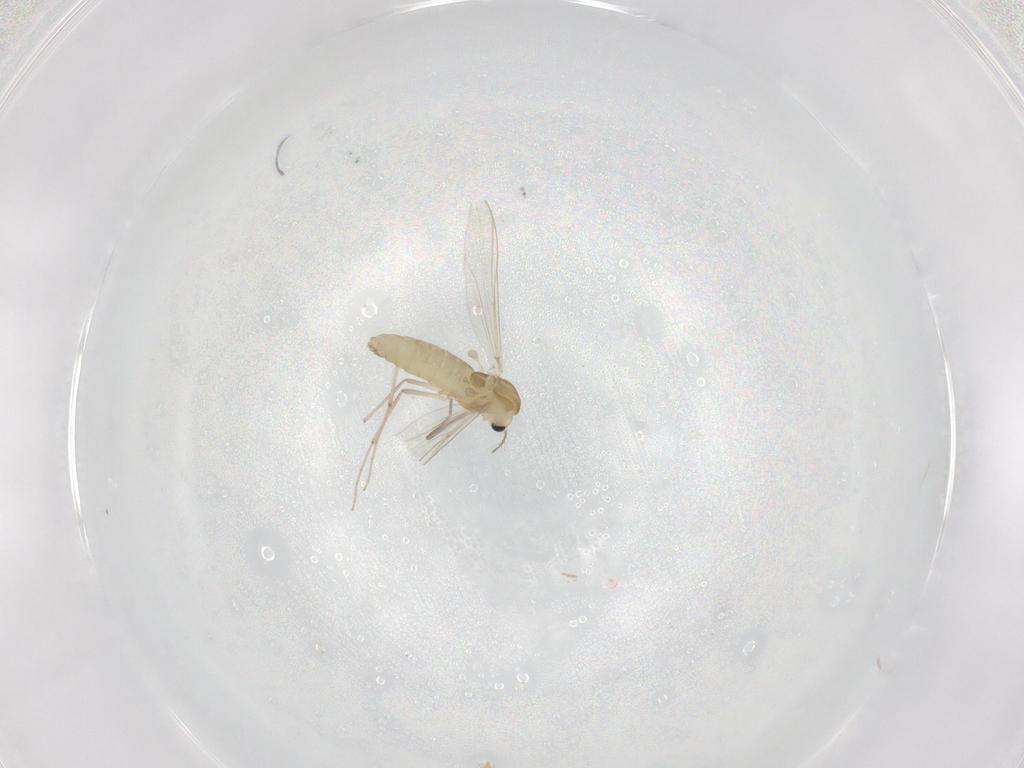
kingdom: Animalia
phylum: Arthropoda
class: Insecta
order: Diptera
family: Chironomidae
